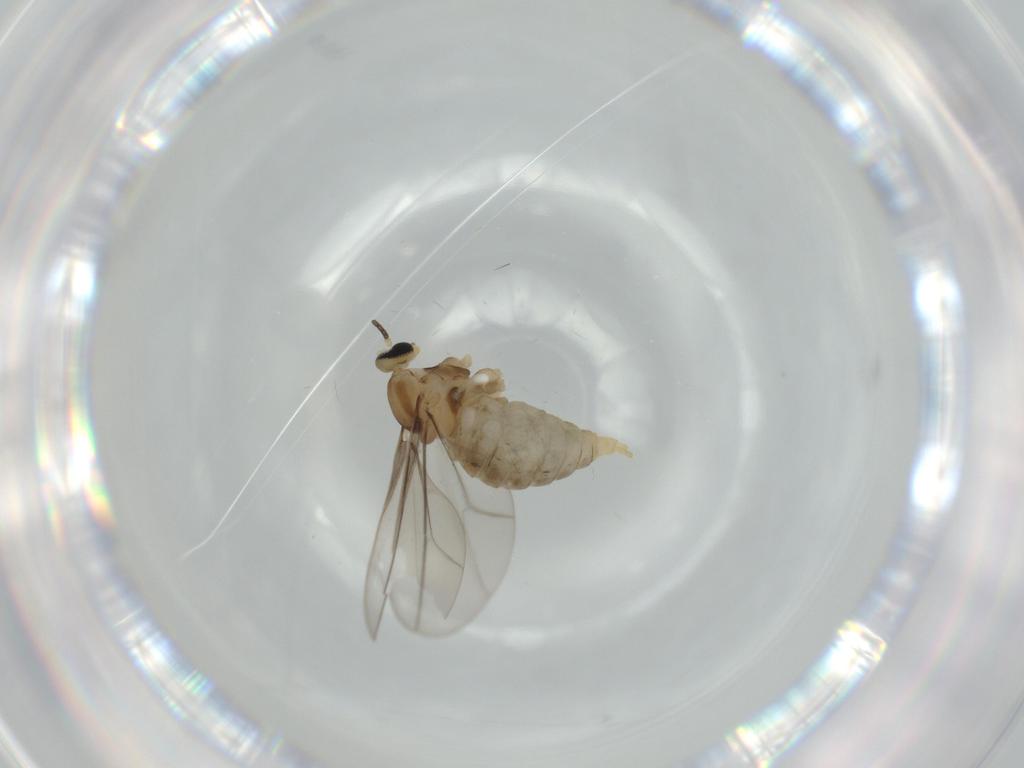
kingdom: Animalia
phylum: Arthropoda
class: Insecta
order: Diptera
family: Cecidomyiidae
